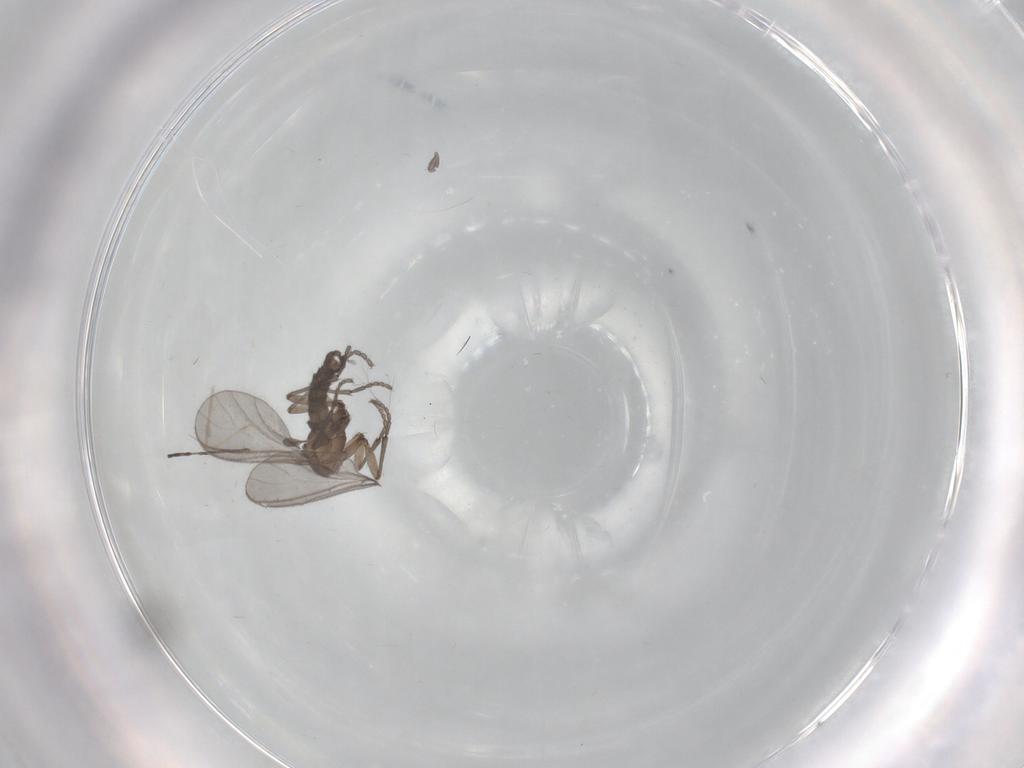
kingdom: Animalia
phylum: Arthropoda
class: Insecta
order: Diptera
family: Sciaridae
